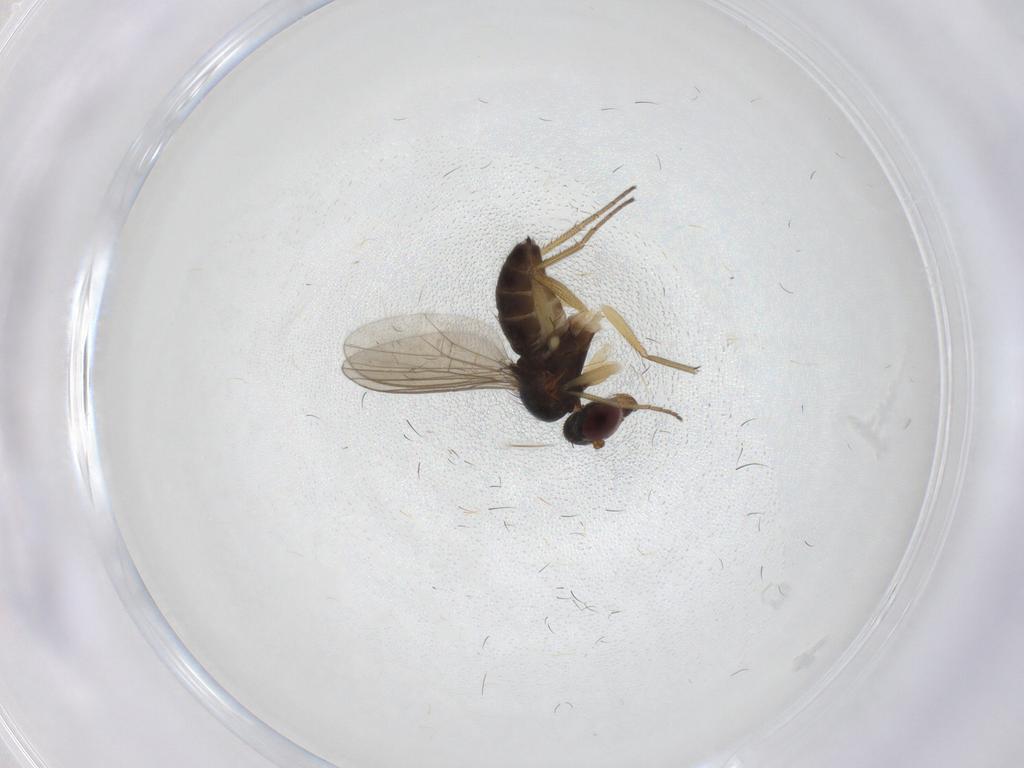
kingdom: Animalia
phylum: Arthropoda
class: Insecta
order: Diptera
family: Dolichopodidae
